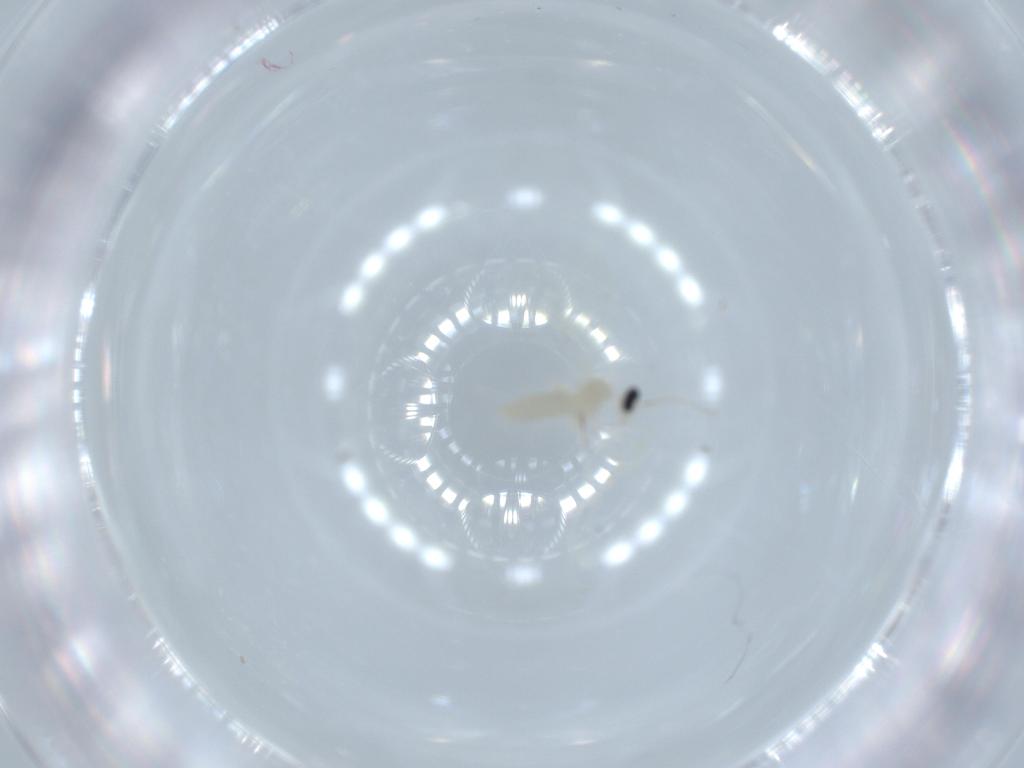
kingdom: Animalia
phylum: Arthropoda
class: Insecta
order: Diptera
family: Cecidomyiidae
